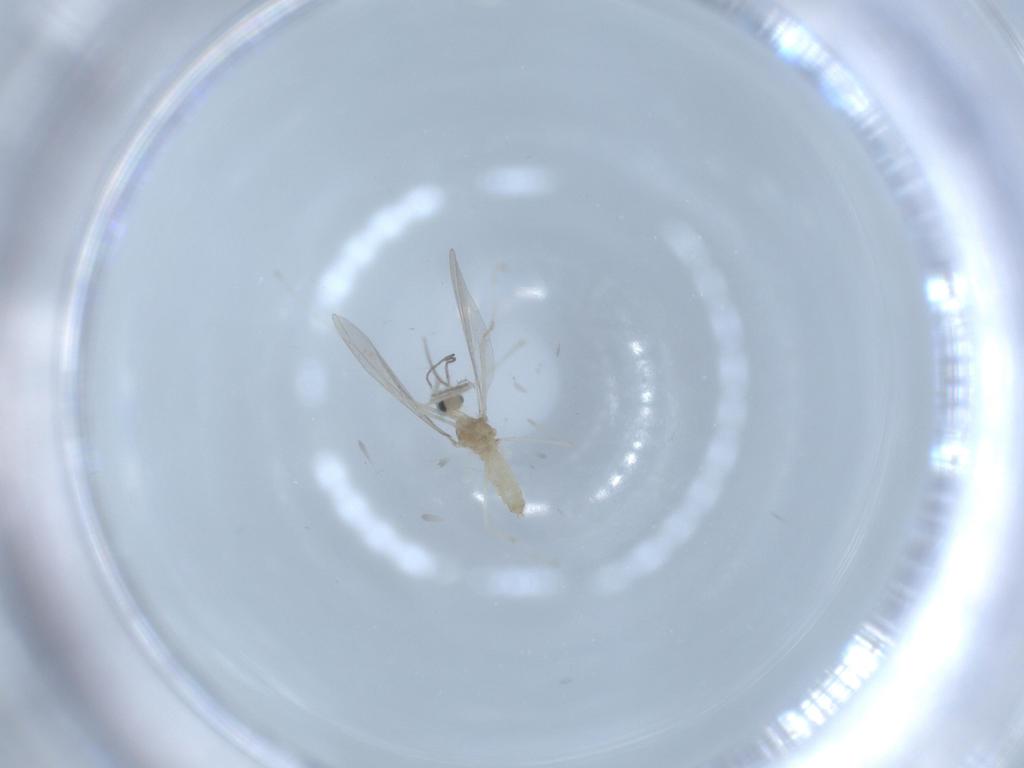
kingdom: Animalia
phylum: Arthropoda
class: Insecta
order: Diptera
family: Cecidomyiidae
